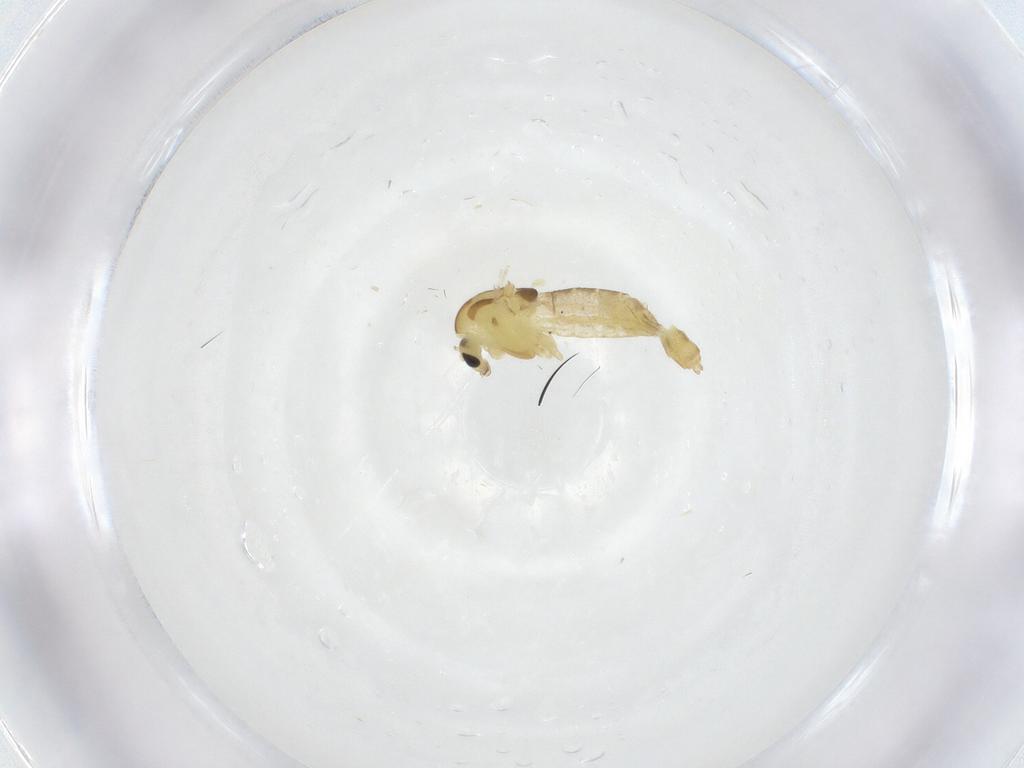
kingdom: Animalia
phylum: Arthropoda
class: Insecta
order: Diptera
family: Chironomidae
